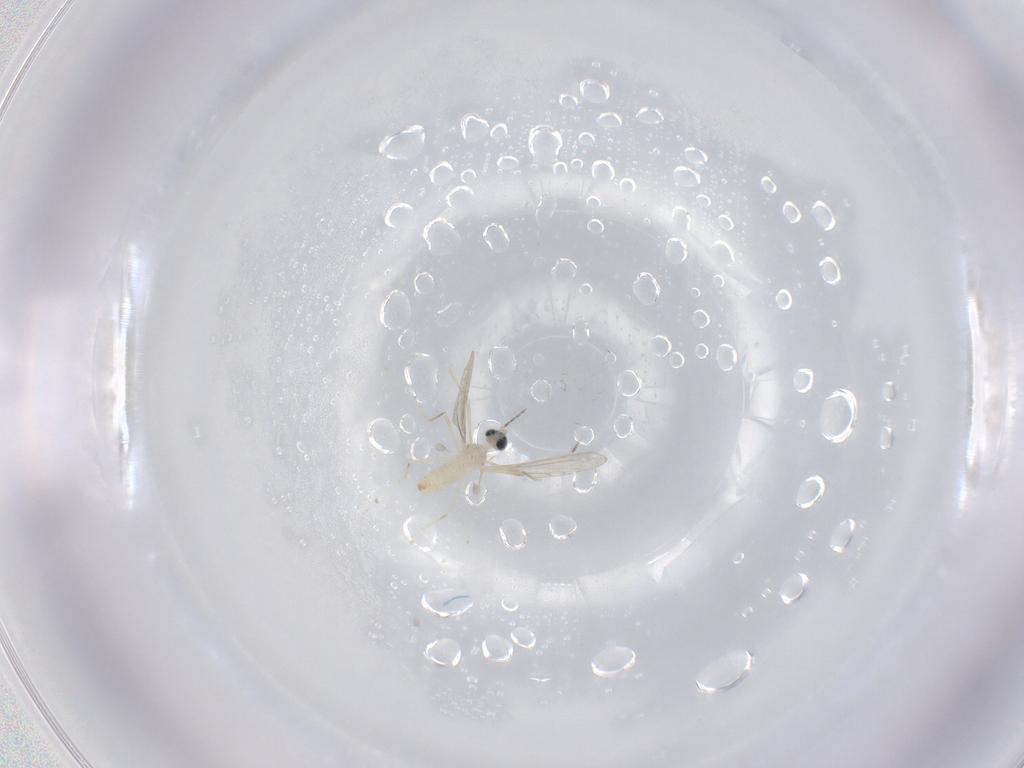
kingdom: Animalia
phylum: Arthropoda
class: Insecta
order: Diptera
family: Cecidomyiidae
